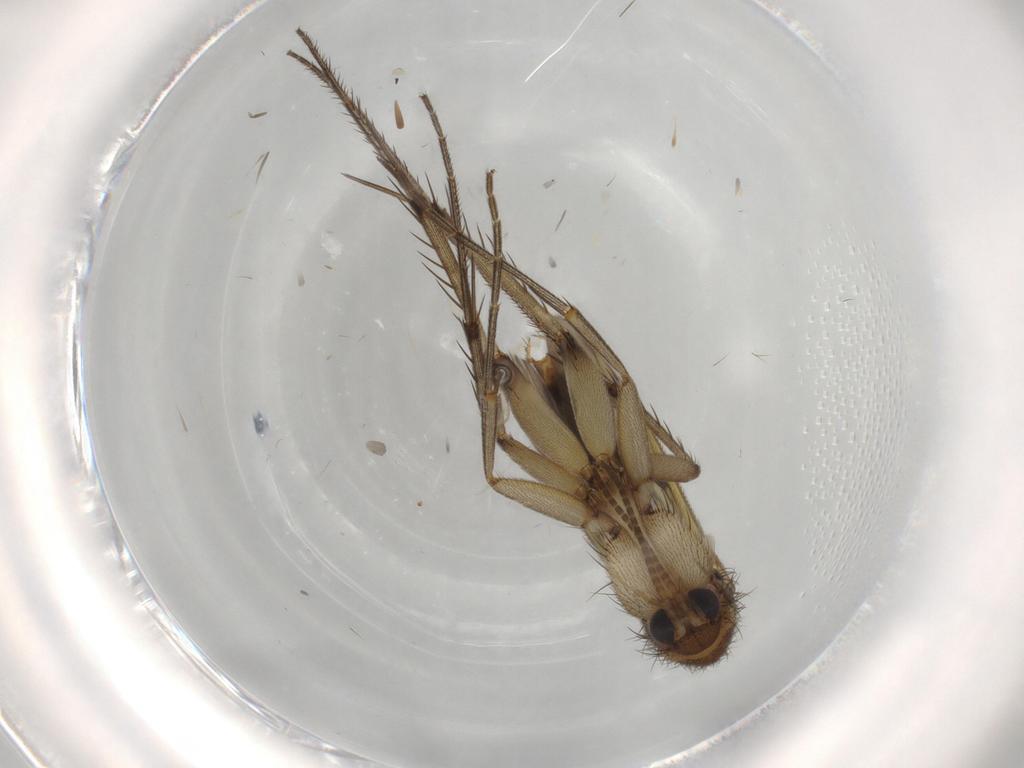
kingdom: Animalia
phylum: Arthropoda
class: Insecta
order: Diptera
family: Mycetophilidae
